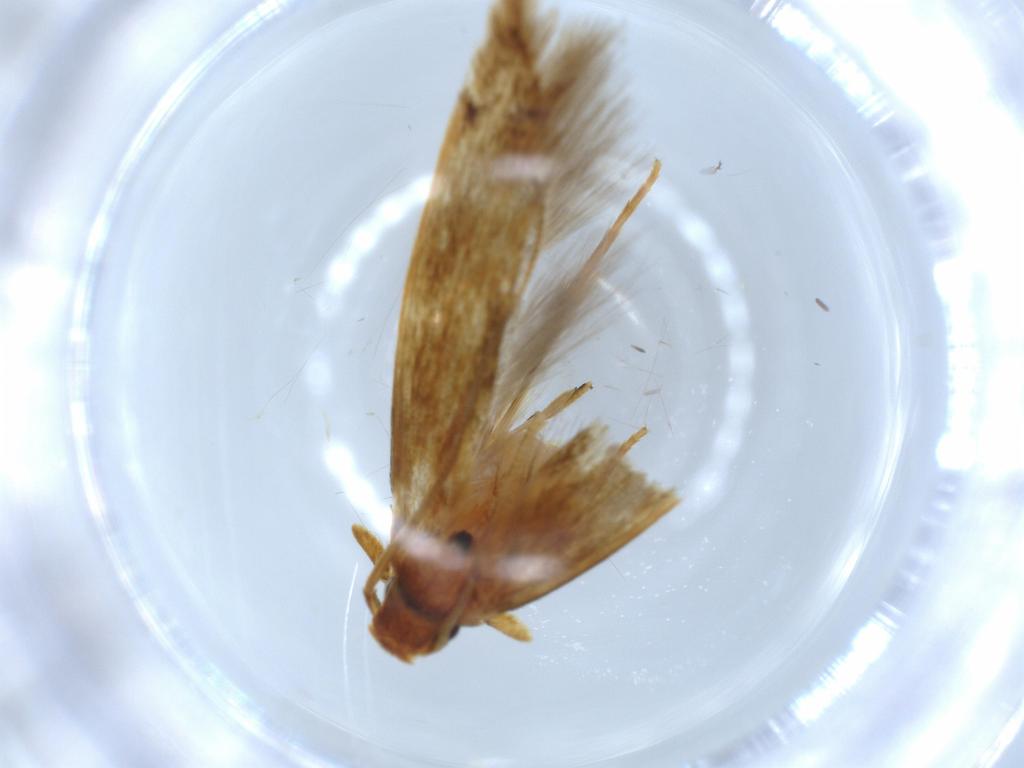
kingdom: Animalia
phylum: Arthropoda
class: Insecta
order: Lepidoptera
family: Tineidae
